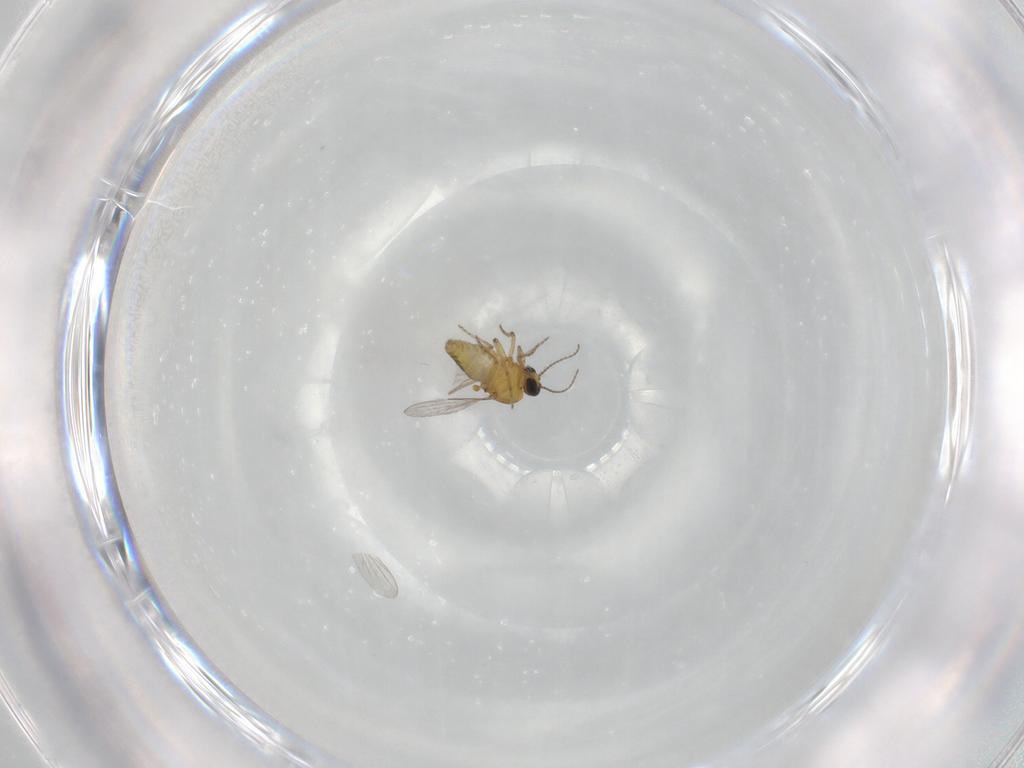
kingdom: Animalia
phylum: Arthropoda
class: Insecta
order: Diptera
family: Ceratopogonidae
